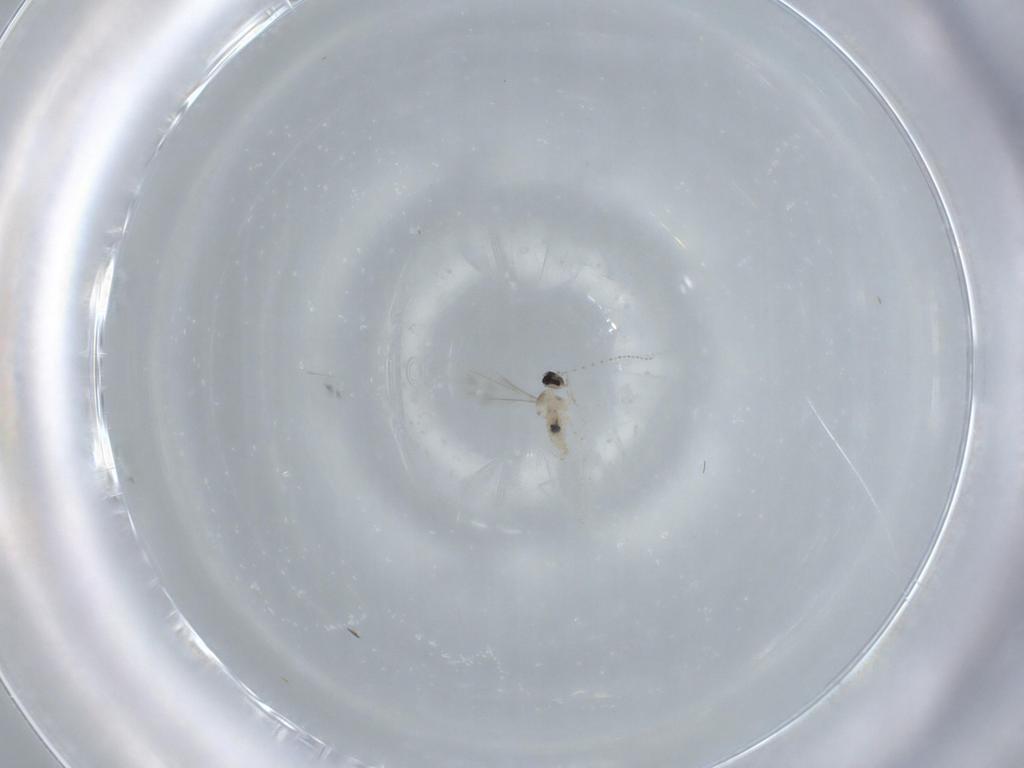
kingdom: Animalia
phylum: Arthropoda
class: Insecta
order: Diptera
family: Cecidomyiidae
